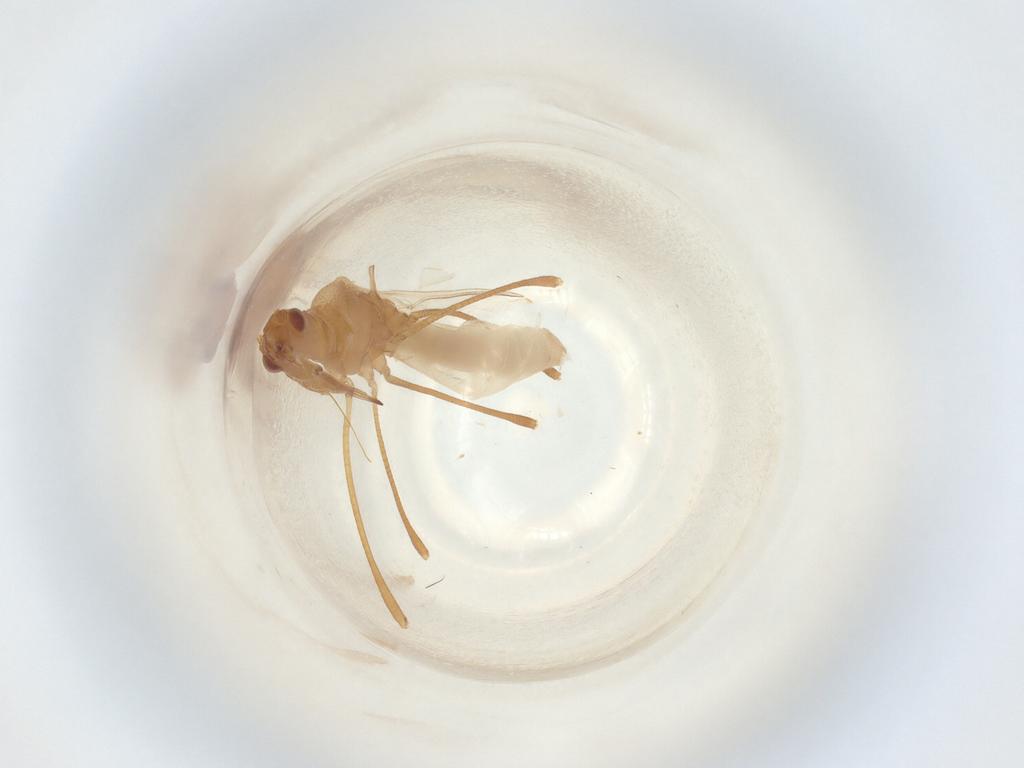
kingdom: Animalia
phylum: Arthropoda
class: Insecta
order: Hemiptera
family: Berytidae
